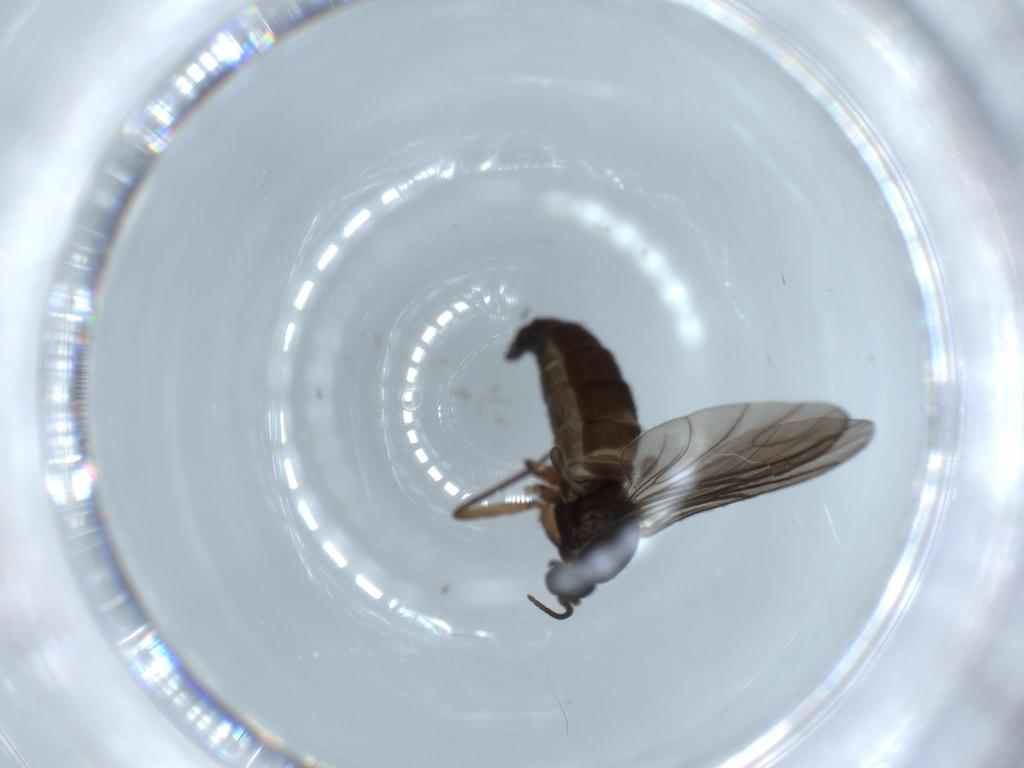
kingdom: Animalia
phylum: Arthropoda
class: Insecta
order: Diptera
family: Sciaridae
